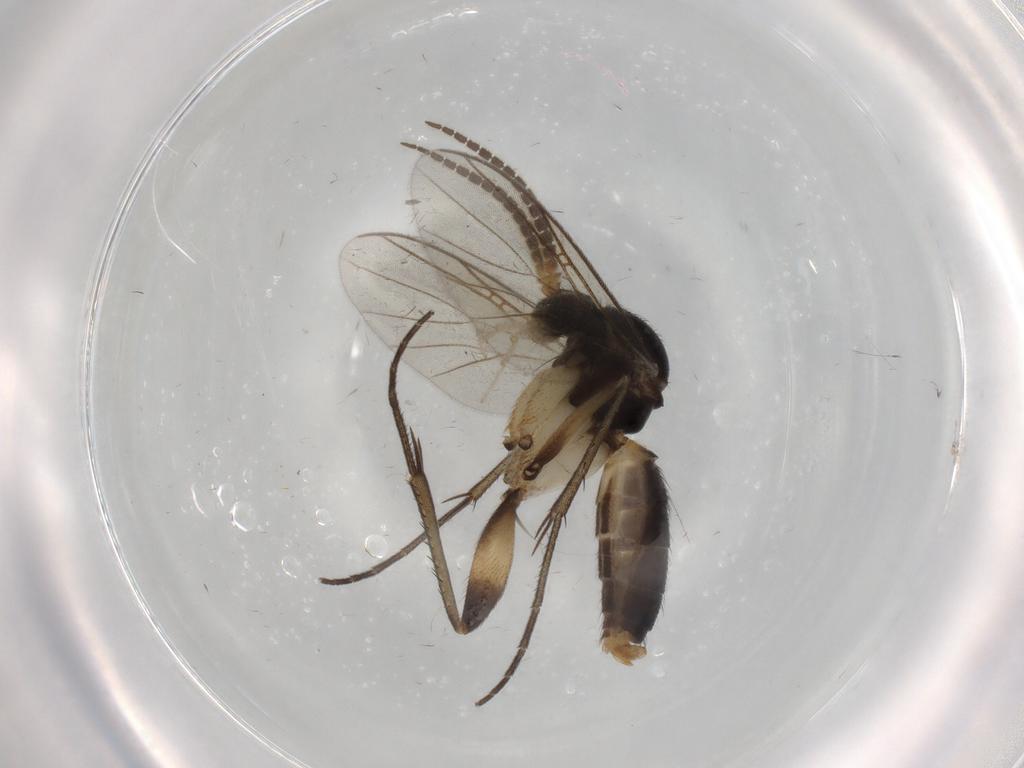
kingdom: Animalia
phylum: Arthropoda
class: Insecta
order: Diptera
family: Mycetophilidae
